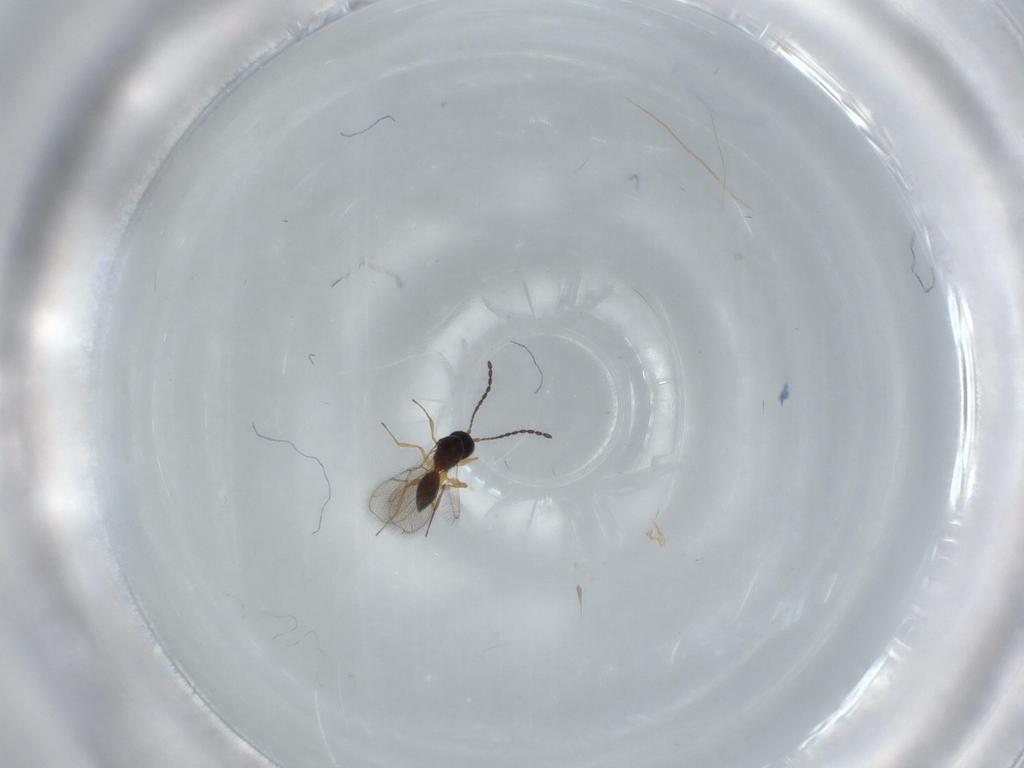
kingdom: Animalia
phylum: Arthropoda
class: Insecta
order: Hymenoptera
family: Figitidae
